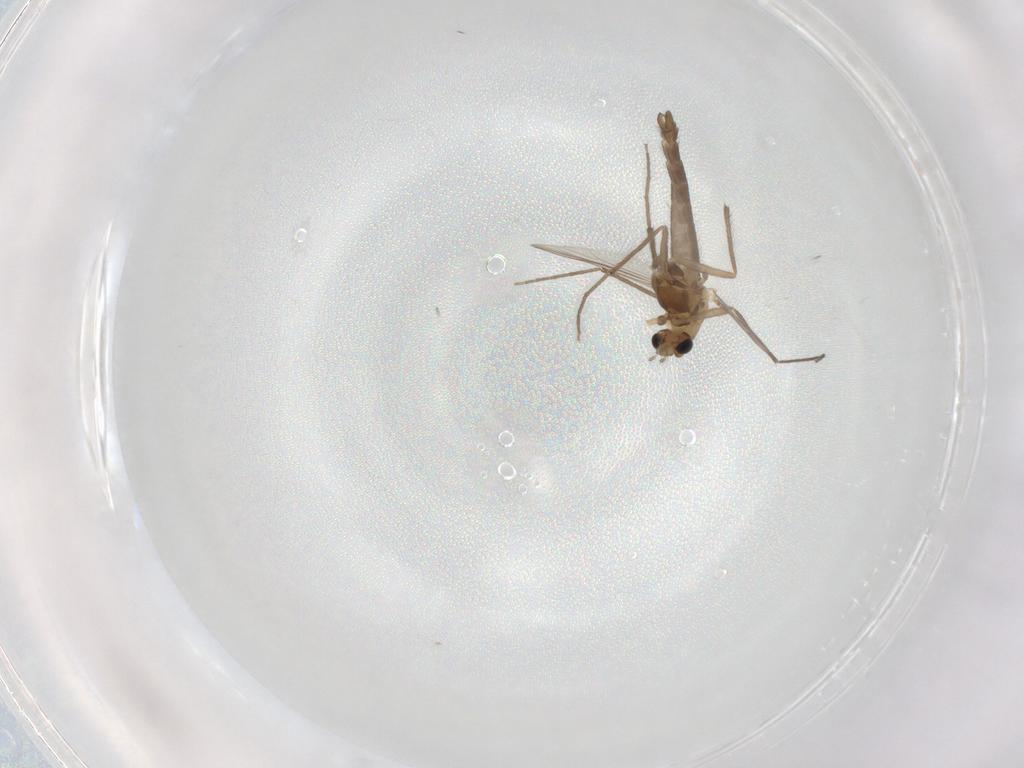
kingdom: Animalia
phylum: Arthropoda
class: Insecta
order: Diptera
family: Chironomidae
